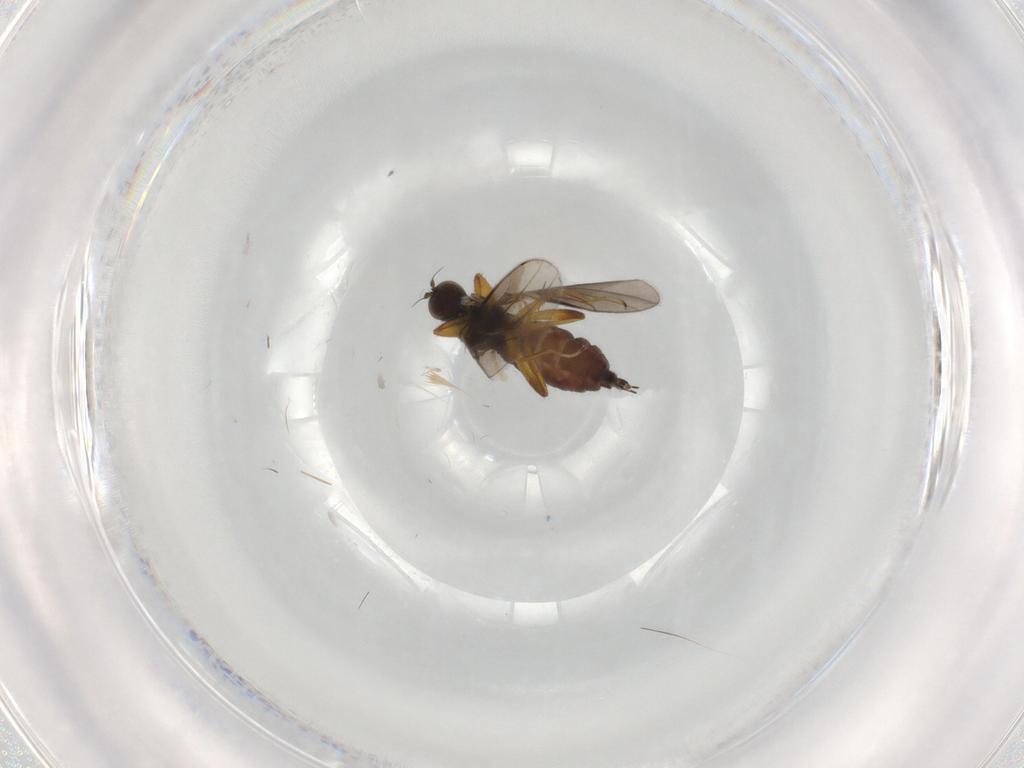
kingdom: Animalia
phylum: Arthropoda
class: Insecta
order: Diptera
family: Hybotidae
